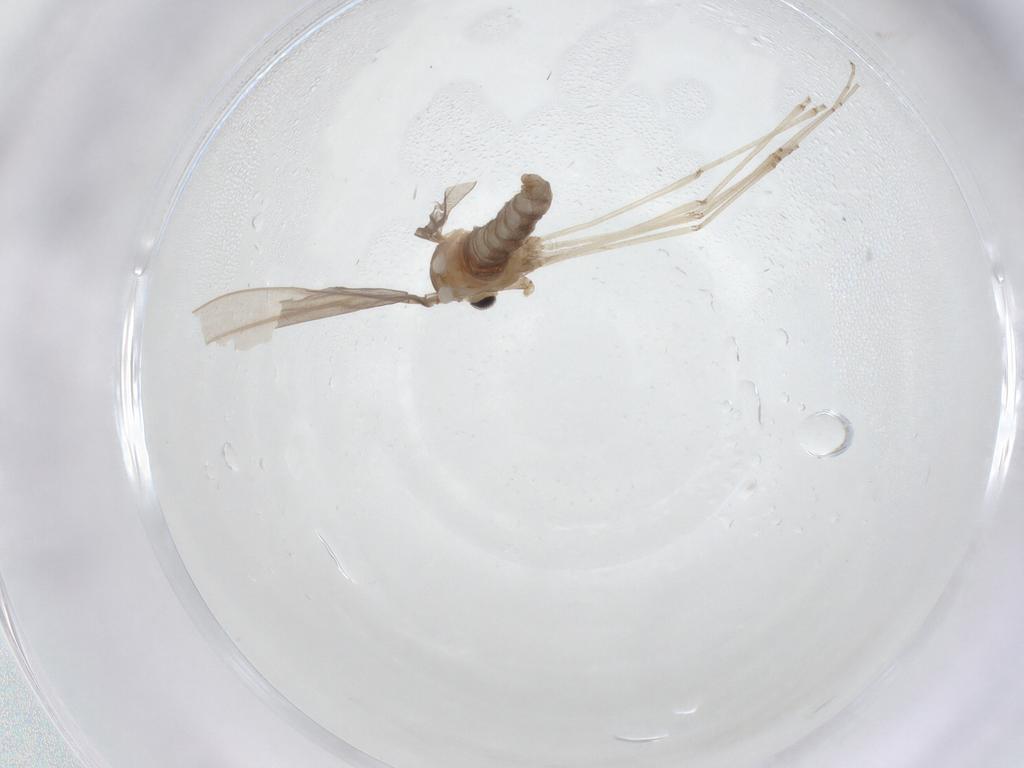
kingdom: Animalia
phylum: Arthropoda
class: Insecta
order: Diptera
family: Cecidomyiidae
